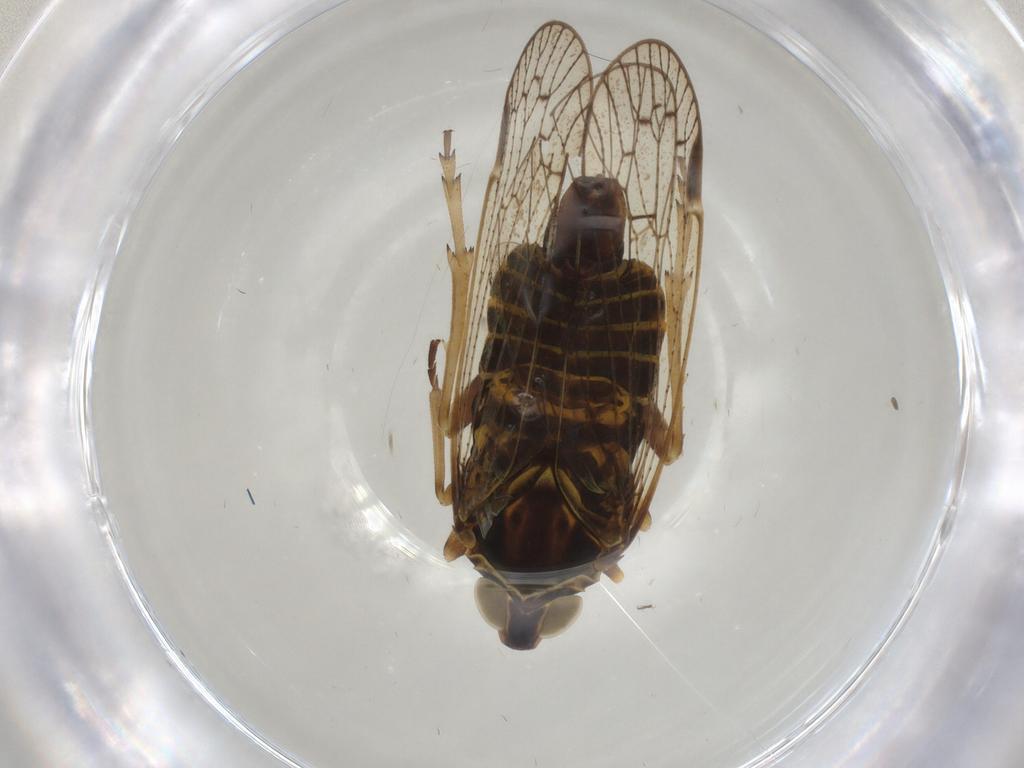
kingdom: Animalia
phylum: Arthropoda
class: Insecta
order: Hemiptera
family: Cixiidae
